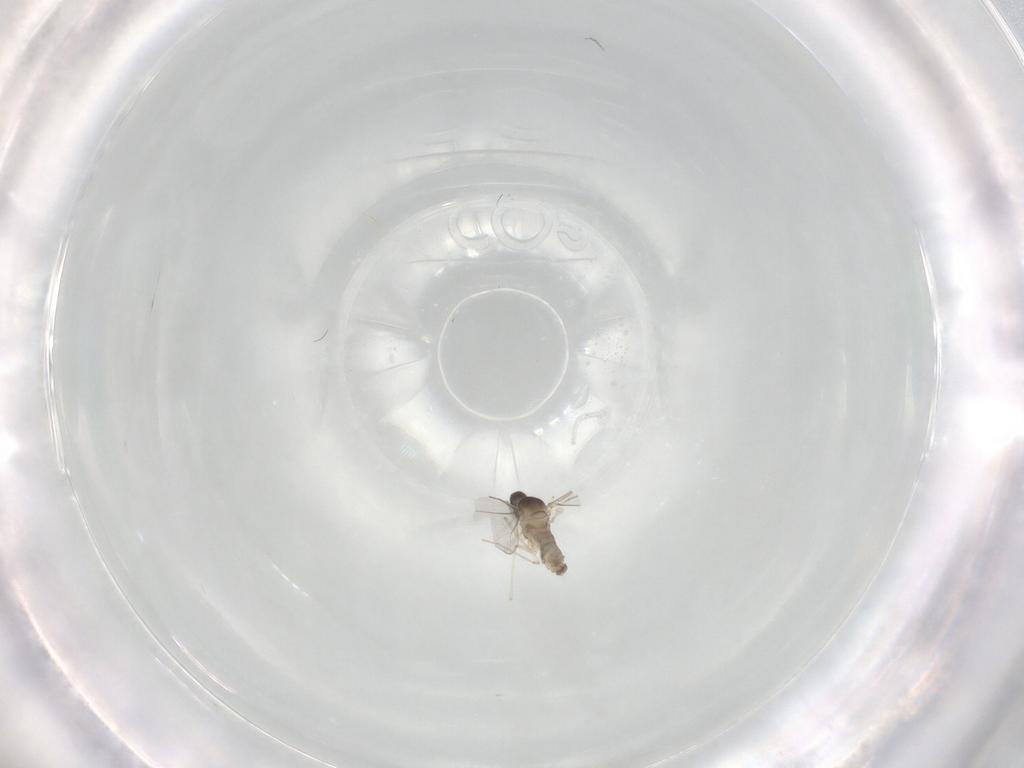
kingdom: Animalia
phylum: Arthropoda
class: Insecta
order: Diptera
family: Cecidomyiidae
